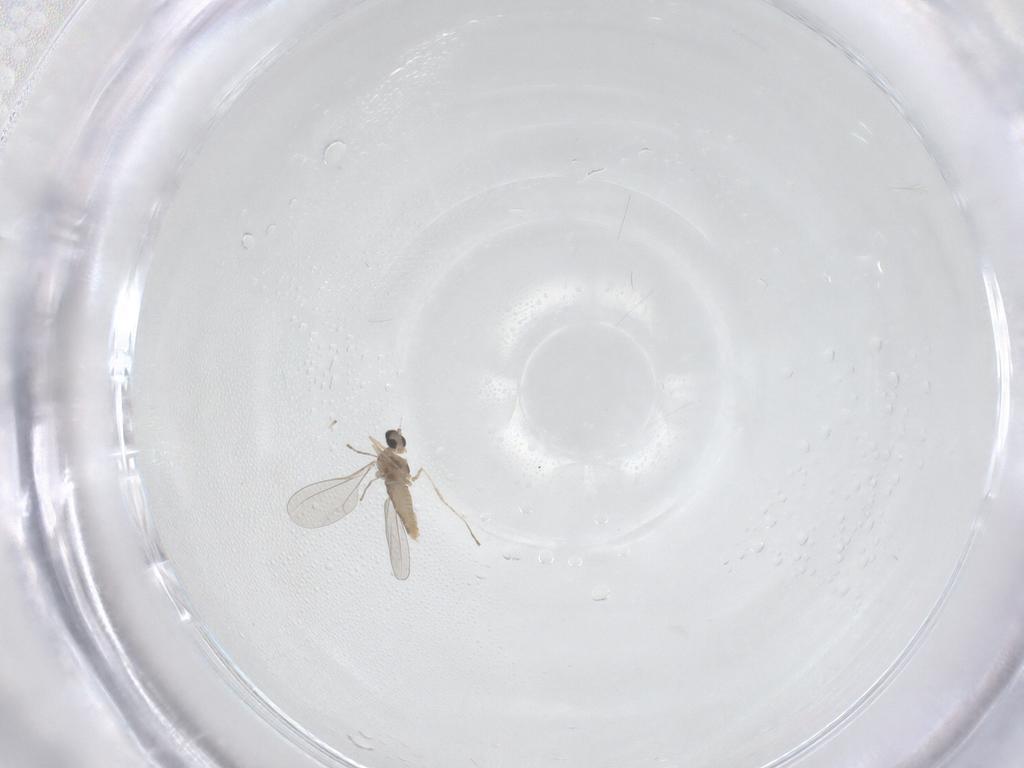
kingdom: Animalia
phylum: Arthropoda
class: Insecta
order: Diptera
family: Cecidomyiidae
